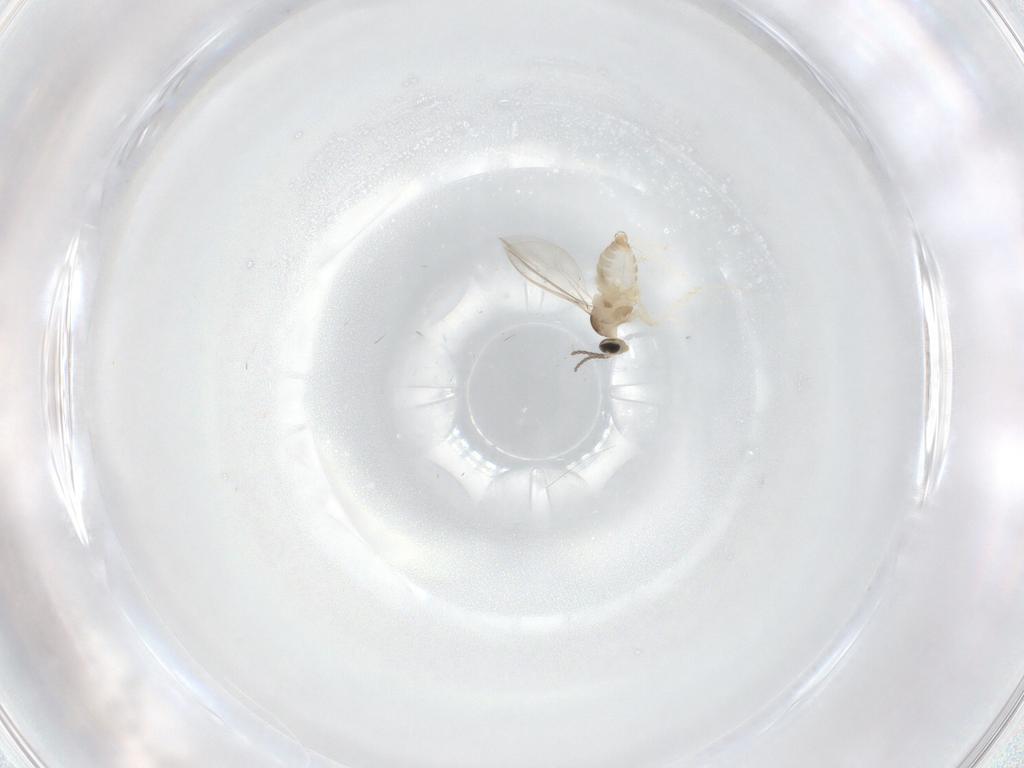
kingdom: Animalia
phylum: Arthropoda
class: Insecta
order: Diptera
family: Cecidomyiidae
